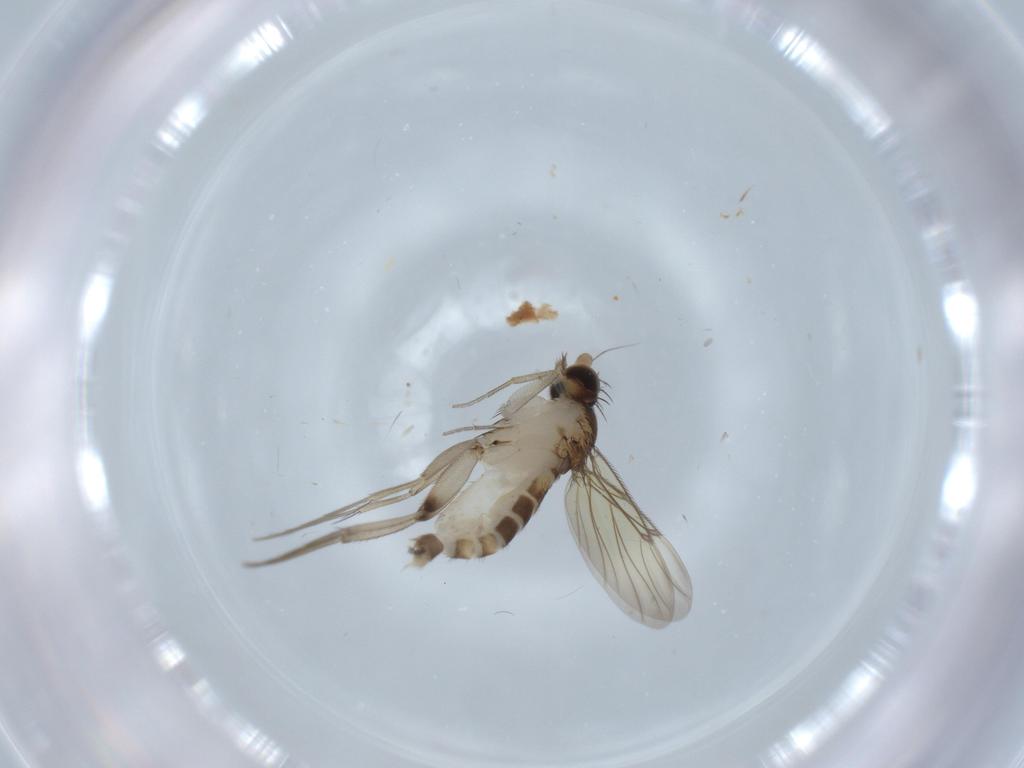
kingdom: Animalia
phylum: Arthropoda
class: Insecta
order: Diptera
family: Phoridae
